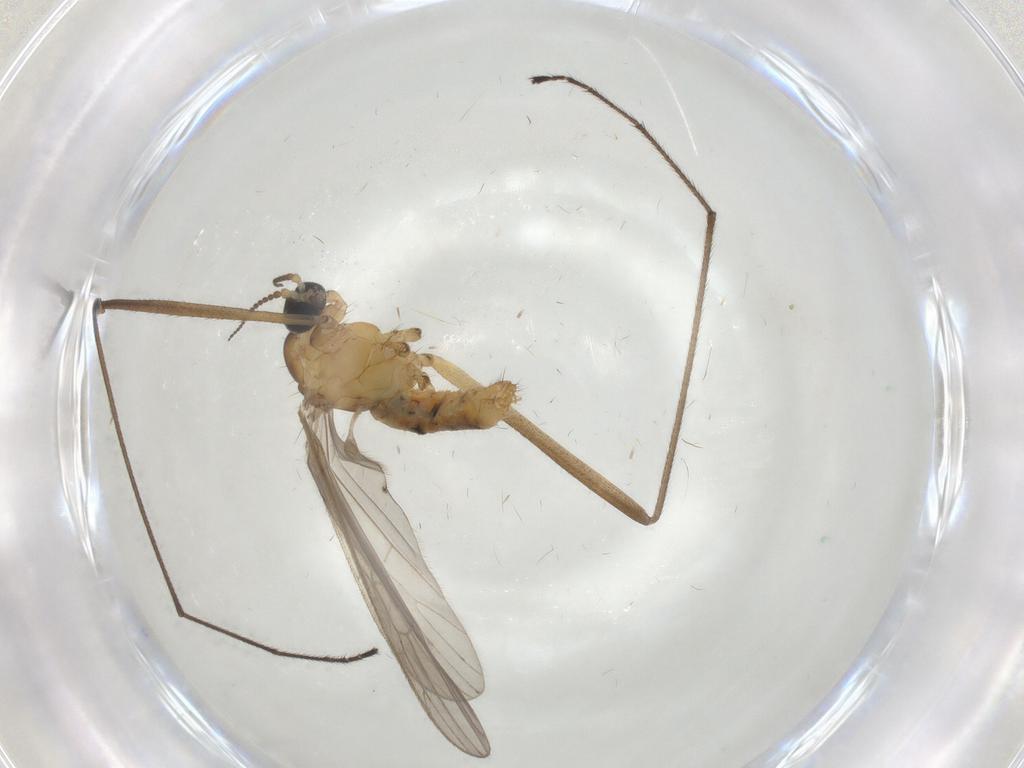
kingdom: Animalia
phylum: Arthropoda
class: Insecta
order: Diptera
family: Limoniidae
